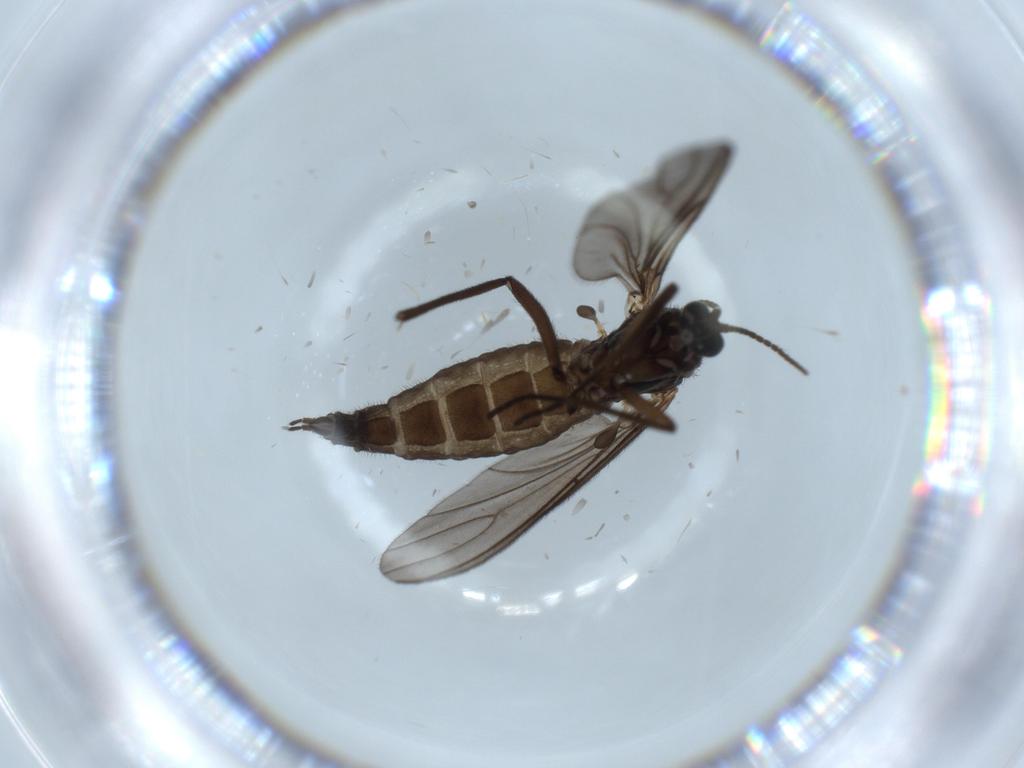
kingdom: Animalia
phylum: Arthropoda
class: Insecta
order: Diptera
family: Sciaridae
